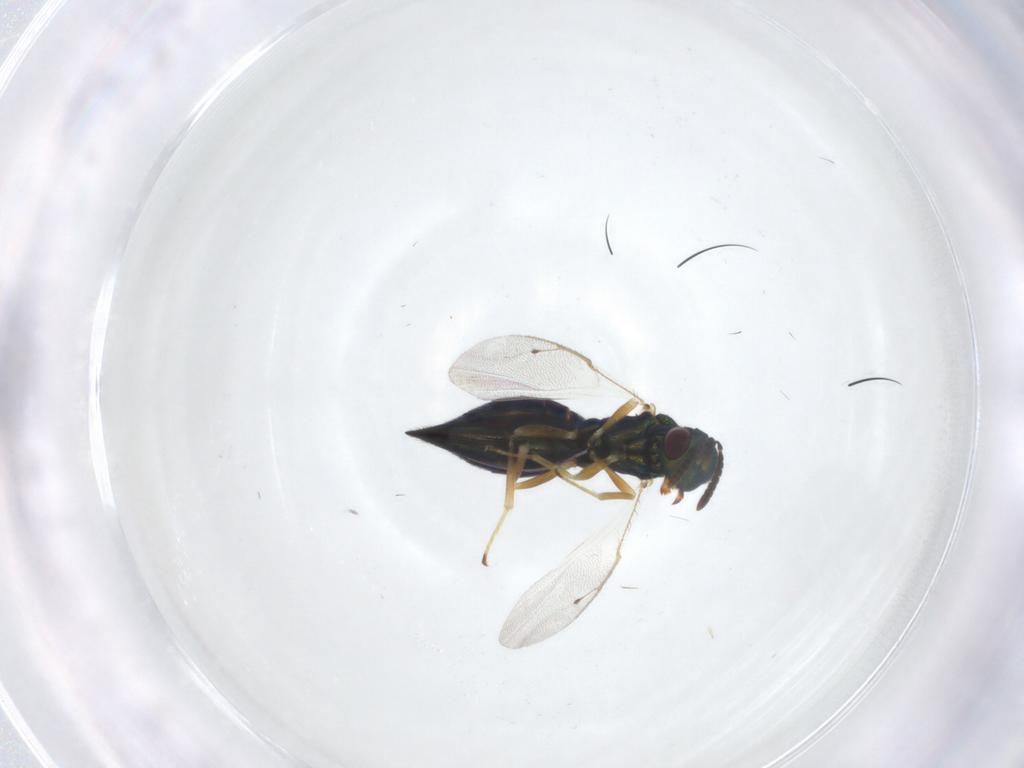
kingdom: Animalia
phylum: Arthropoda
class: Insecta
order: Hymenoptera
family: Pteromalidae
